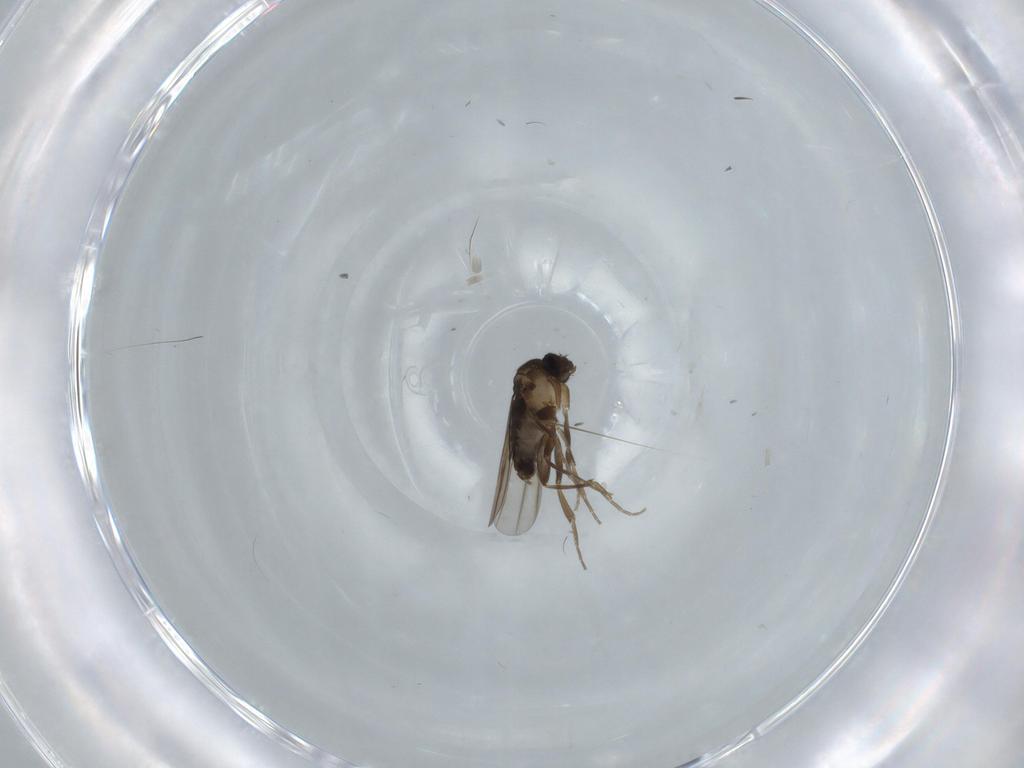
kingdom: Animalia
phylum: Arthropoda
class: Insecta
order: Diptera
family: Phoridae
